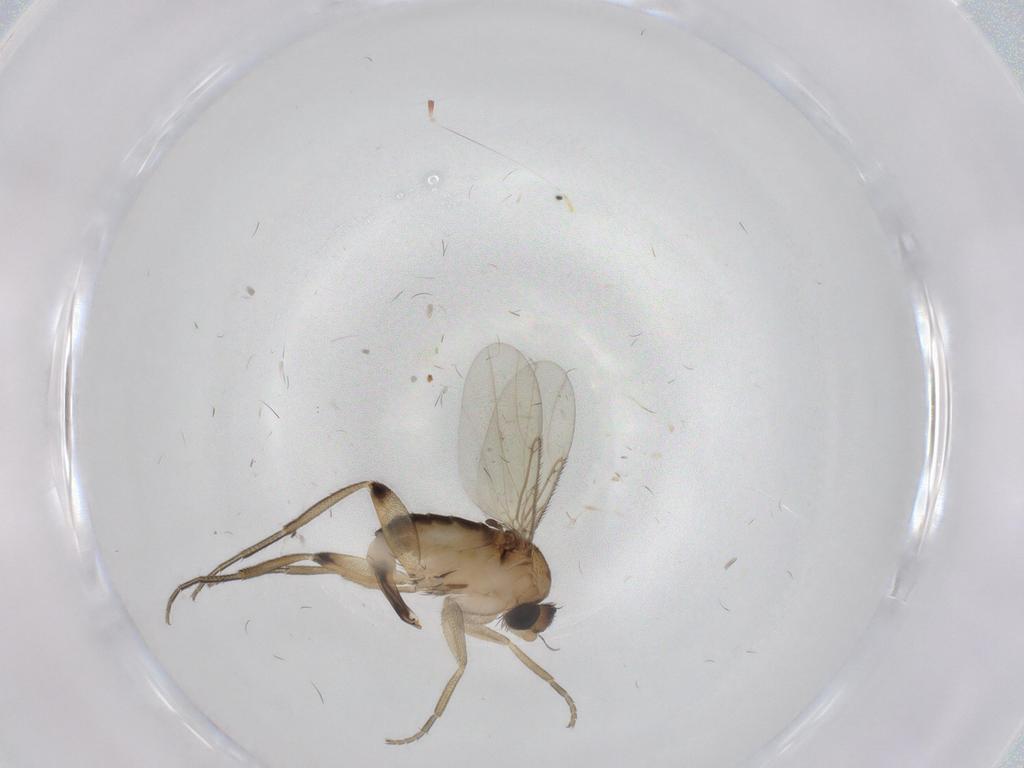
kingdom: Animalia
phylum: Arthropoda
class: Insecta
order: Diptera
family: Phoridae
